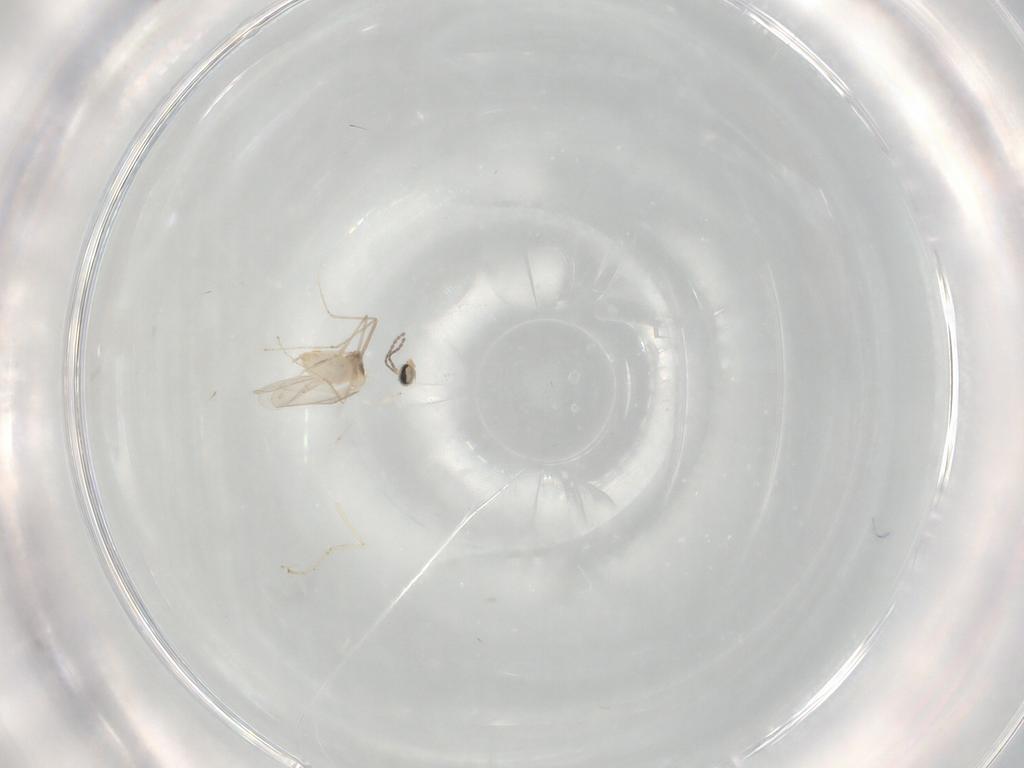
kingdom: Animalia
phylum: Arthropoda
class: Insecta
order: Diptera
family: Cecidomyiidae
